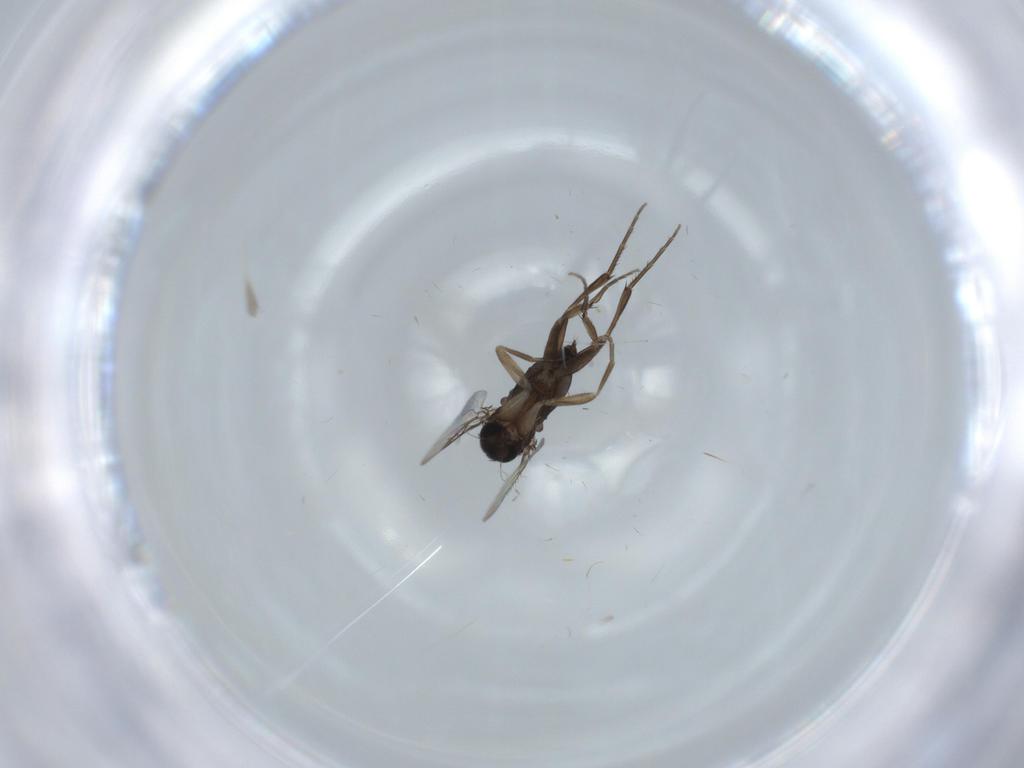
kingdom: Animalia
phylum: Arthropoda
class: Insecta
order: Diptera
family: Phoridae
